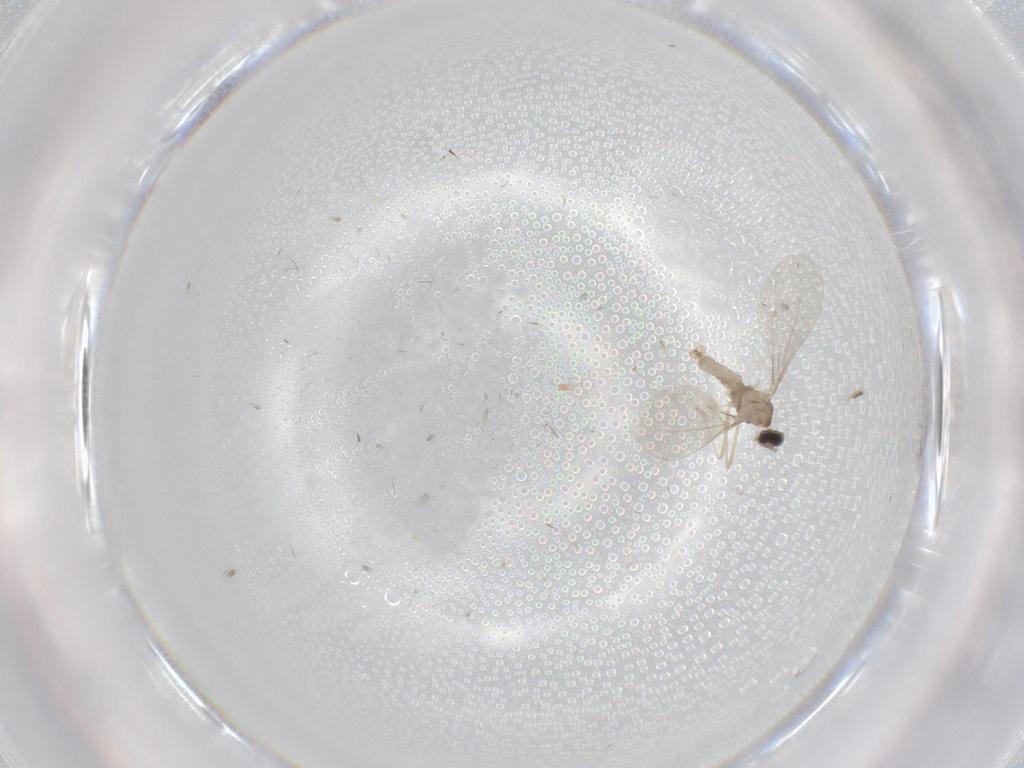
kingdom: Animalia
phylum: Arthropoda
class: Insecta
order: Diptera
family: Cecidomyiidae
